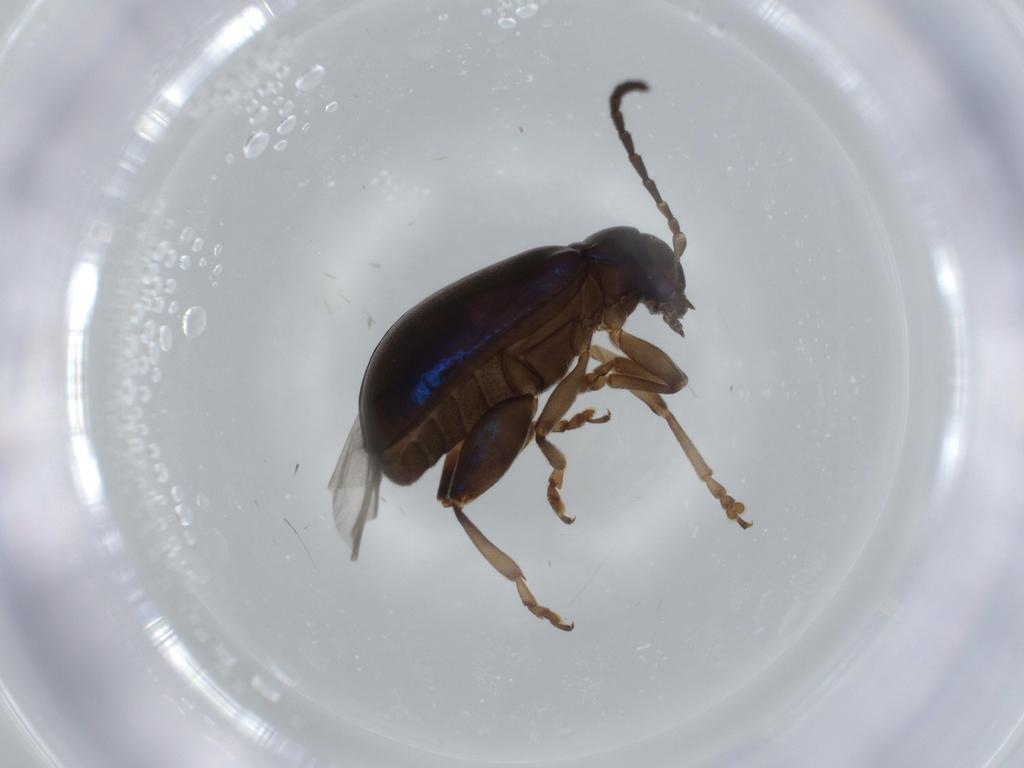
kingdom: Animalia
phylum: Arthropoda
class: Insecta
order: Coleoptera
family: Chrysomelidae
